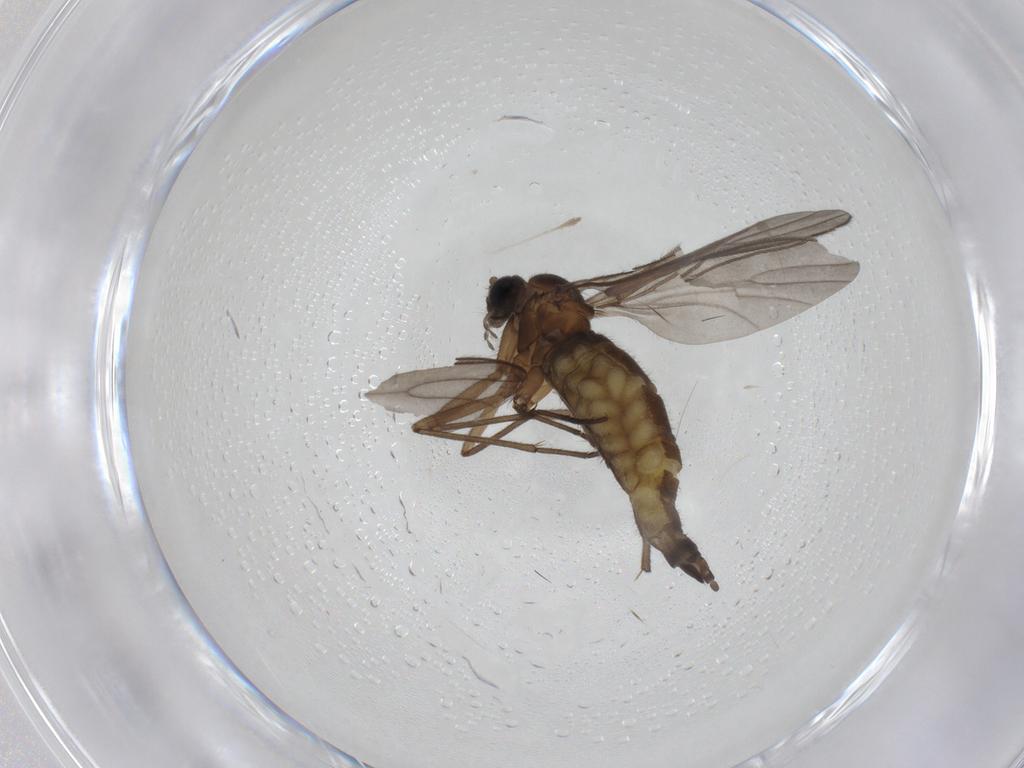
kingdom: Animalia
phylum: Arthropoda
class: Insecta
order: Diptera
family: Sciaridae
